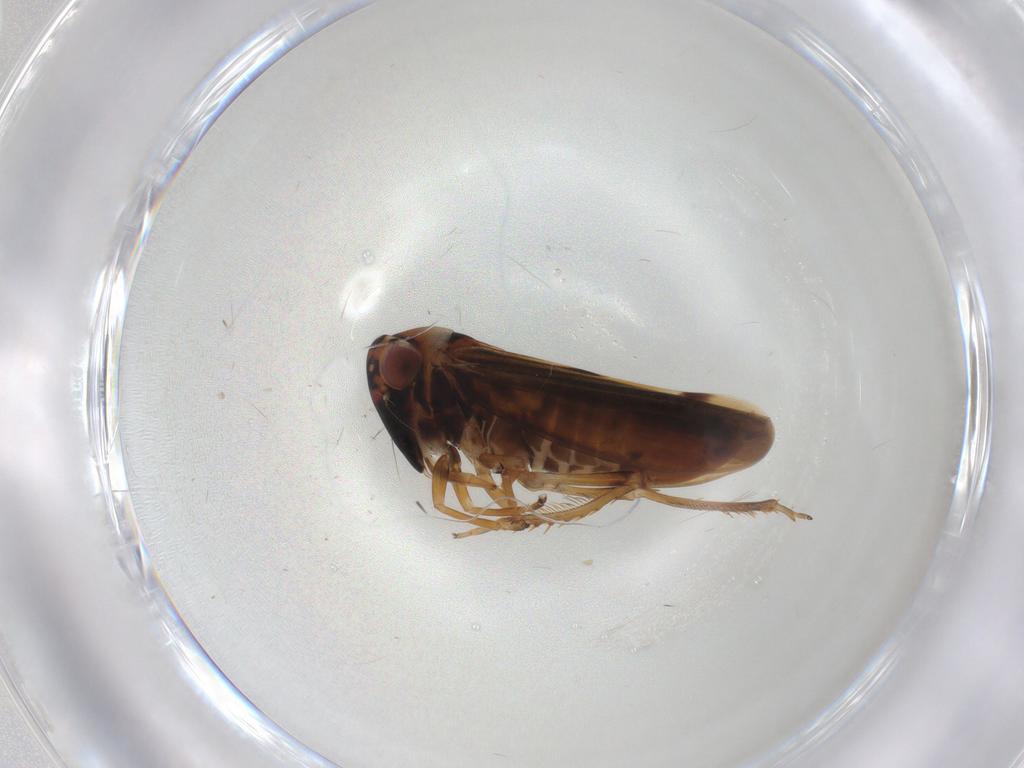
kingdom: Animalia
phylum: Arthropoda
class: Insecta
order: Hemiptera
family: Cicadellidae
